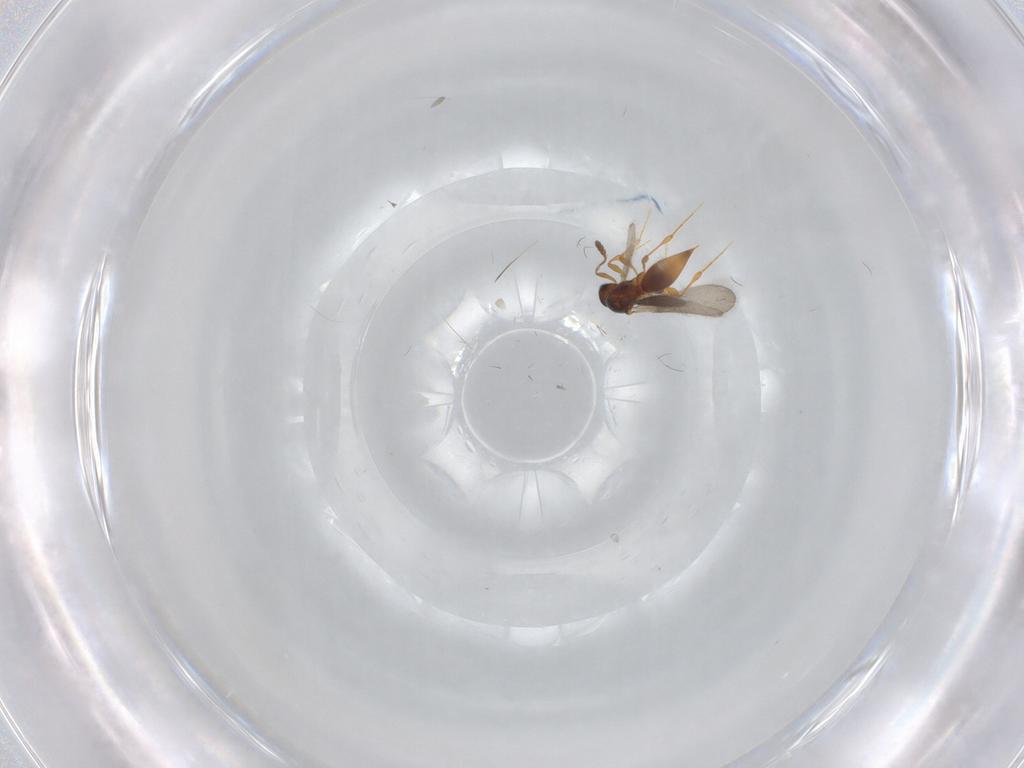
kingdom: Animalia
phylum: Arthropoda
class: Insecta
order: Hymenoptera
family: Platygastridae
